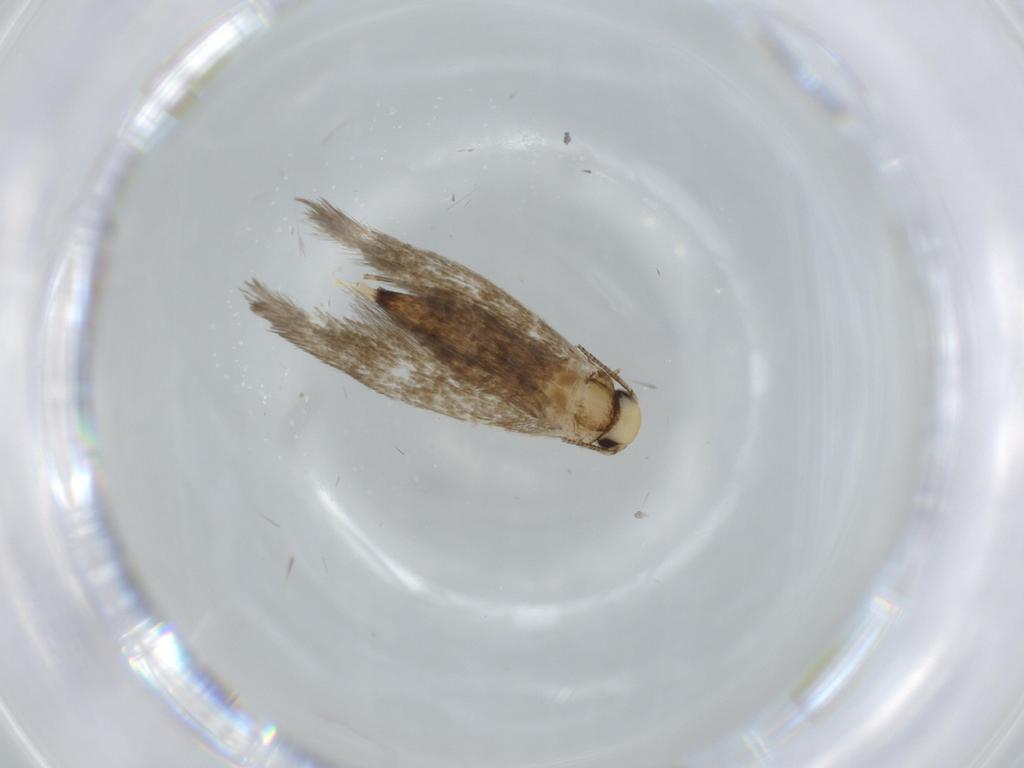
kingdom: Animalia
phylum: Arthropoda
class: Insecta
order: Lepidoptera
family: Tineidae
